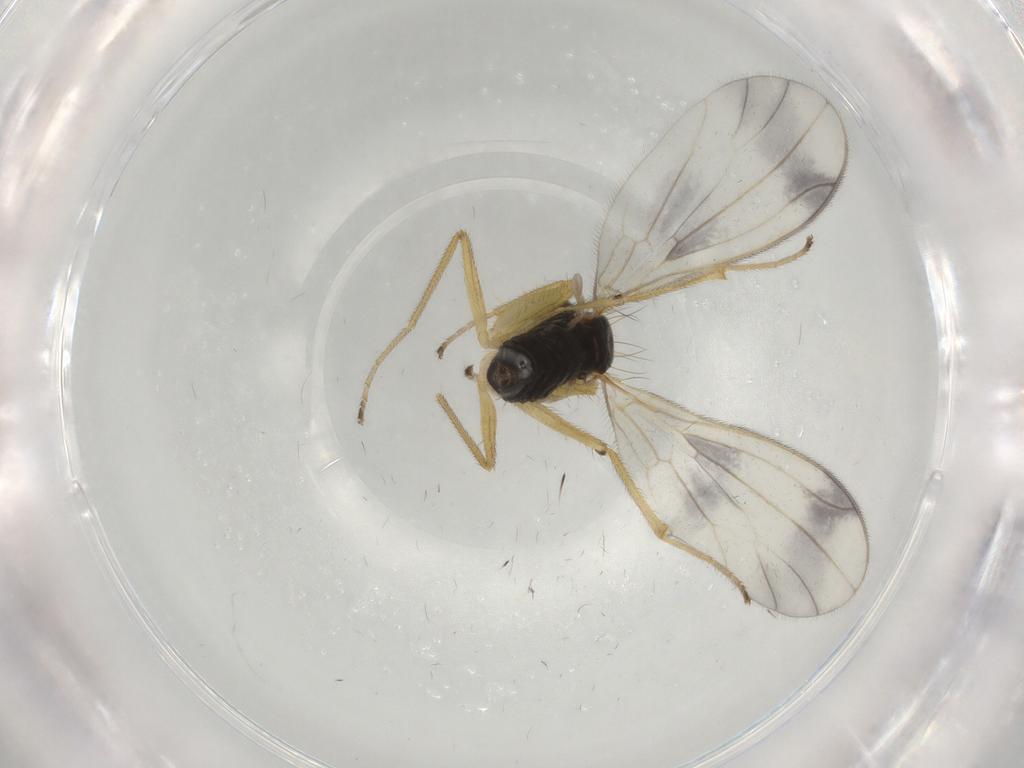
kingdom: Animalia
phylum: Arthropoda
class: Insecta
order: Diptera
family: Empididae
